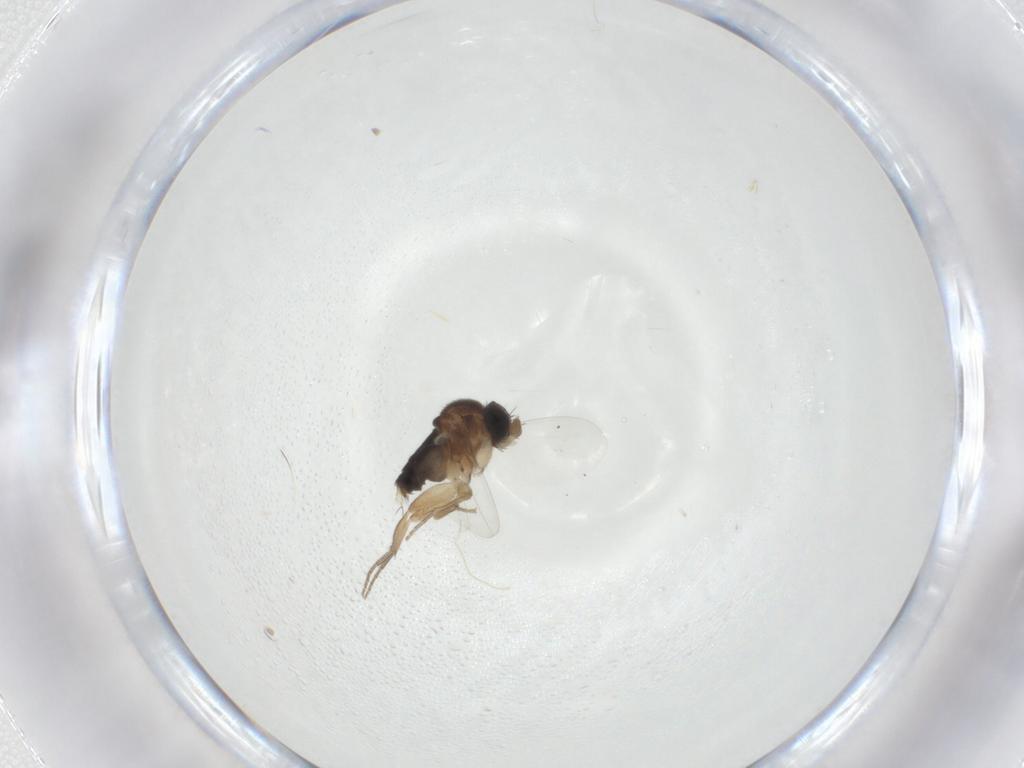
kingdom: Animalia
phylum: Arthropoda
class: Insecta
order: Diptera
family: Phoridae
